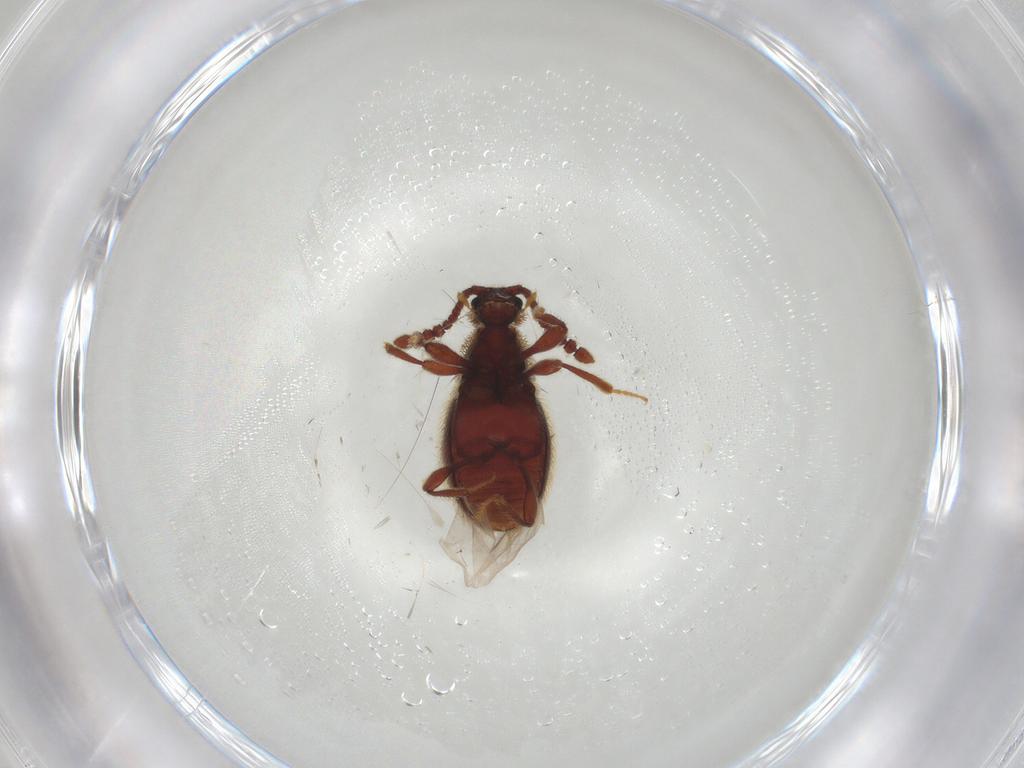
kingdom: Animalia
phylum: Arthropoda
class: Insecta
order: Coleoptera
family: Staphylinidae
